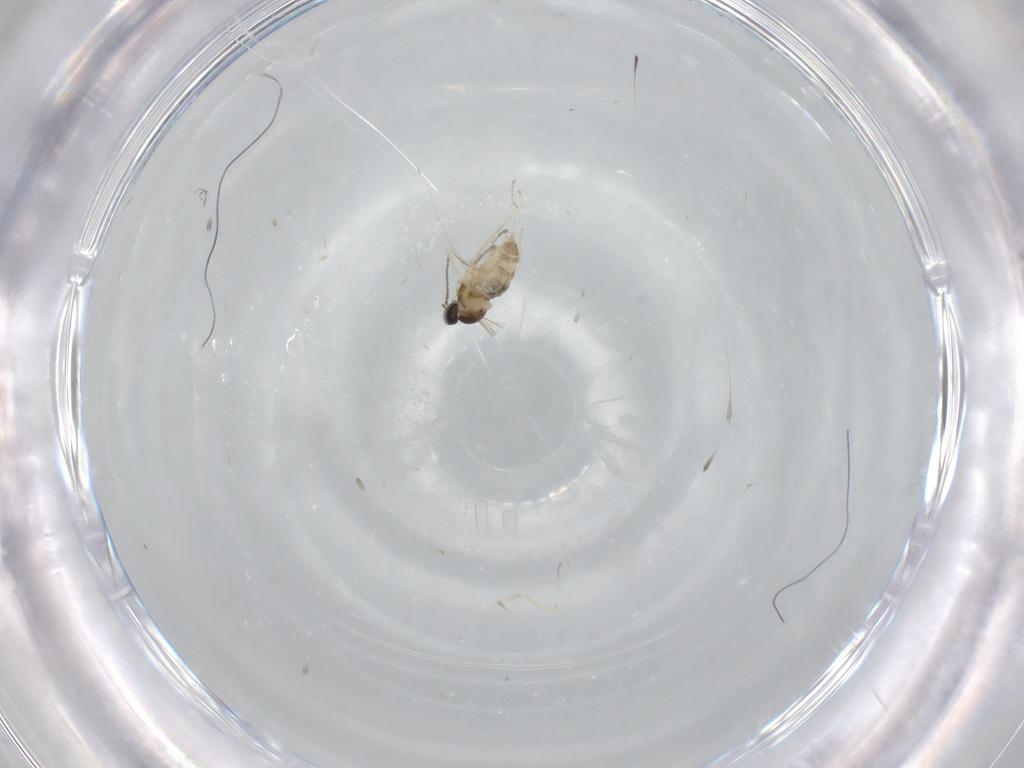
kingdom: Animalia
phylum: Arthropoda
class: Insecta
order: Diptera
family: Cecidomyiidae
